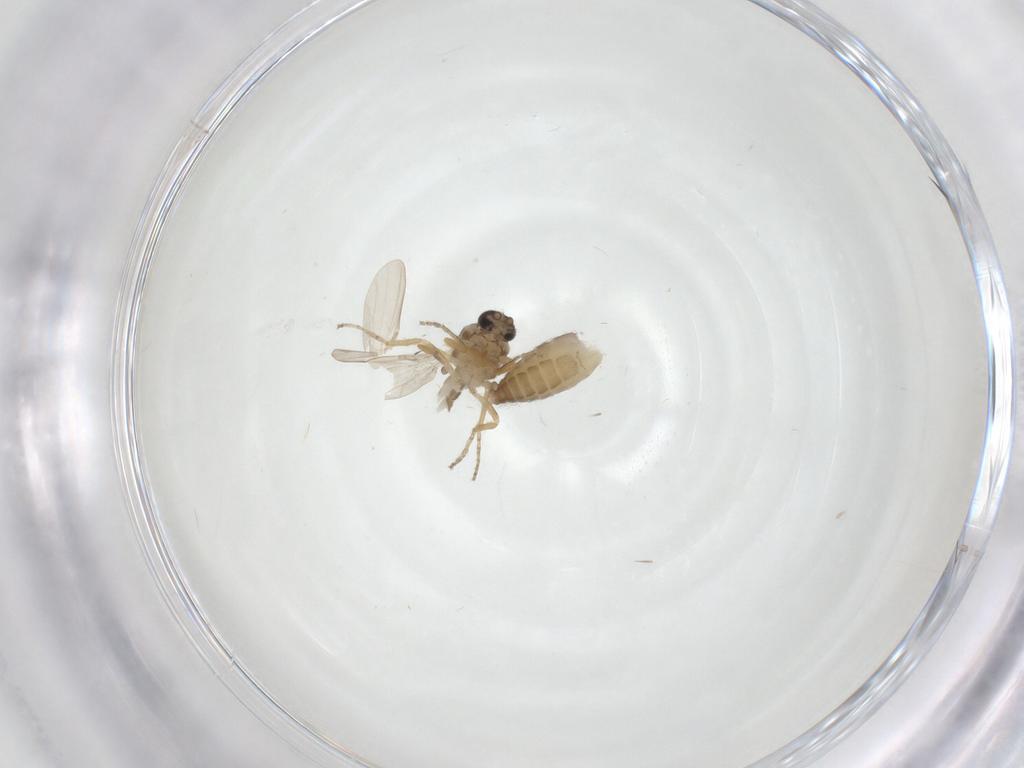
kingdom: Animalia
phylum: Arthropoda
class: Insecta
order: Diptera
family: Ceratopogonidae
